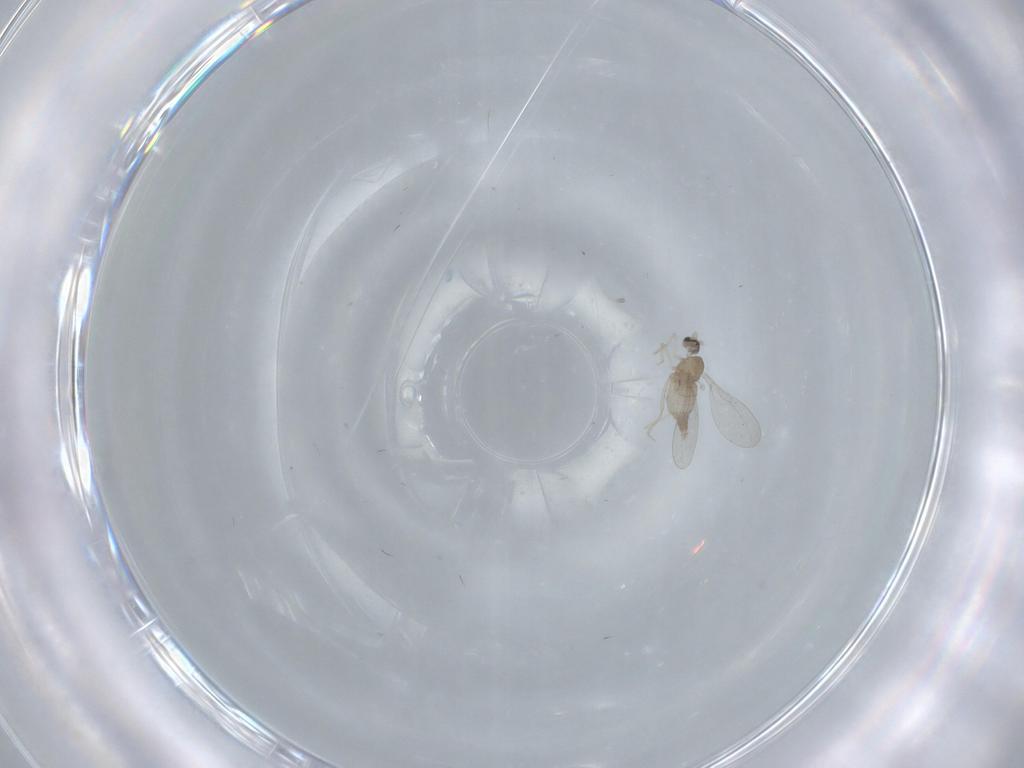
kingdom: Animalia
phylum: Arthropoda
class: Insecta
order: Diptera
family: Cecidomyiidae
